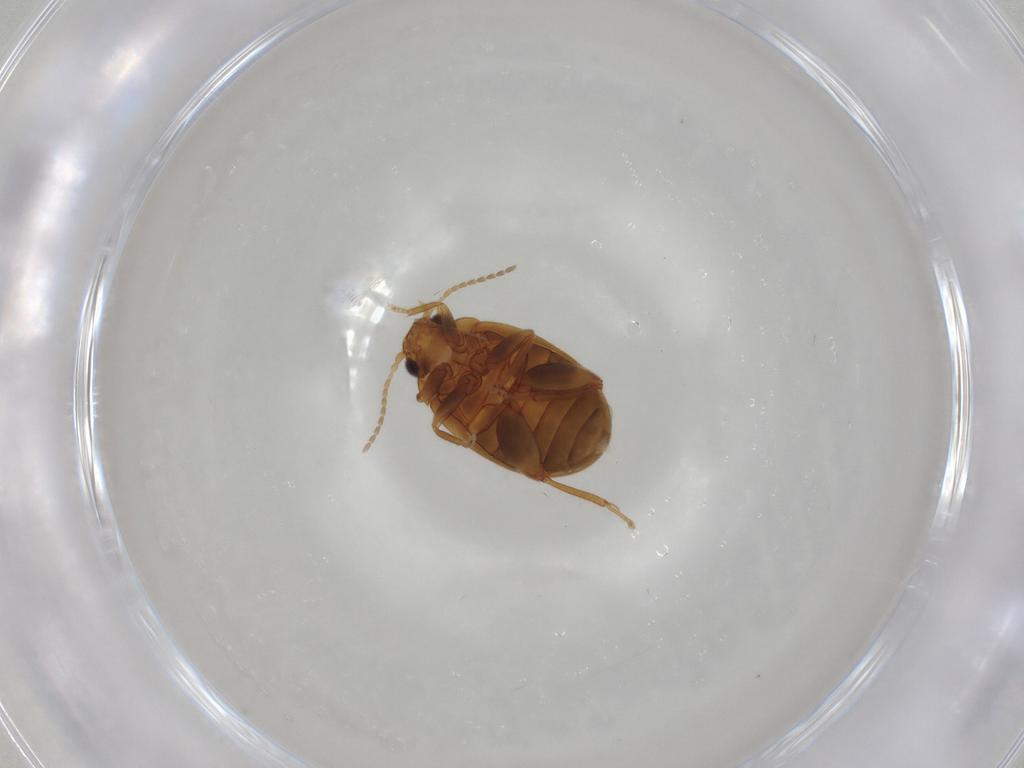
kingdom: Animalia
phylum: Arthropoda
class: Insecta
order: Coleoptera
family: Scirtidae
